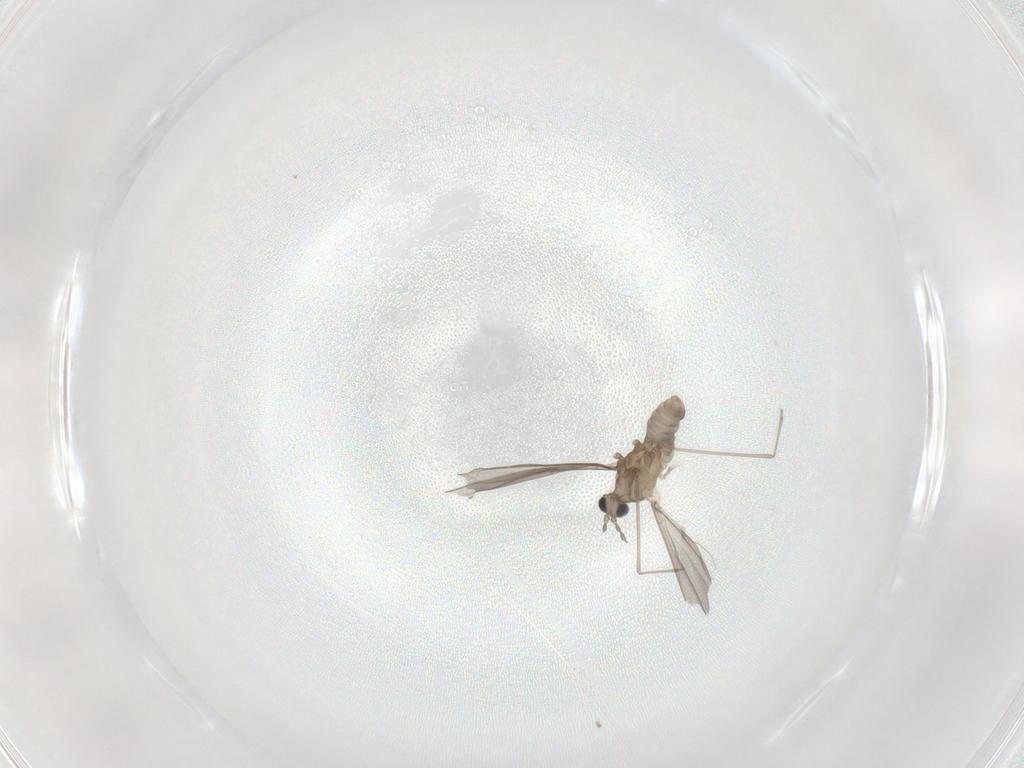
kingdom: Animalia
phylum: Arthropoda
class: Insecta
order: Diptera
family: Cecidomyiidae
